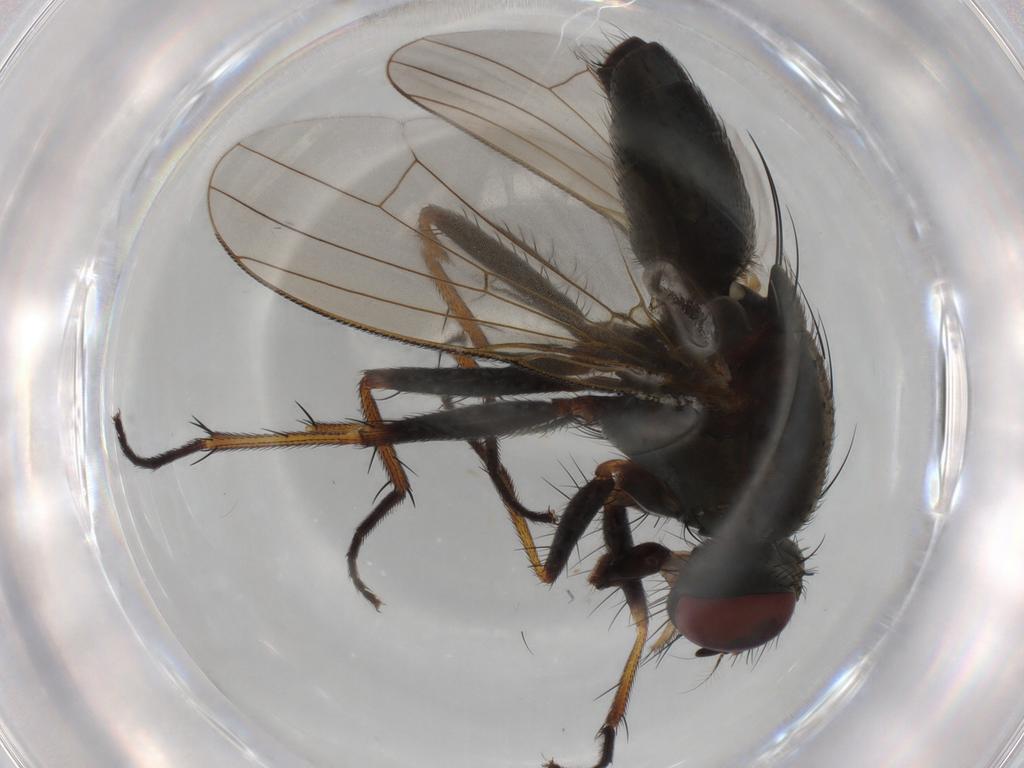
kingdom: Animalia
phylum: Arthropoda
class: Insecta
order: Diptera
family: Muscidae
